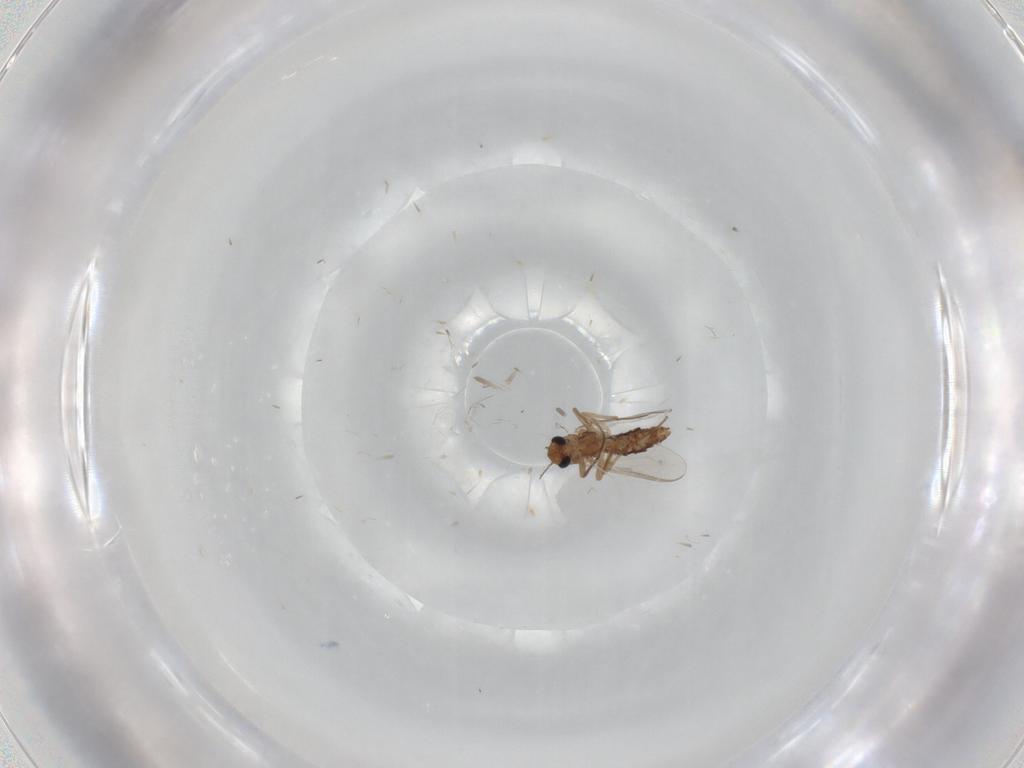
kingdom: Animalia
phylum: Arthropoda
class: Insecta
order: Diptera
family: Chironomidae
